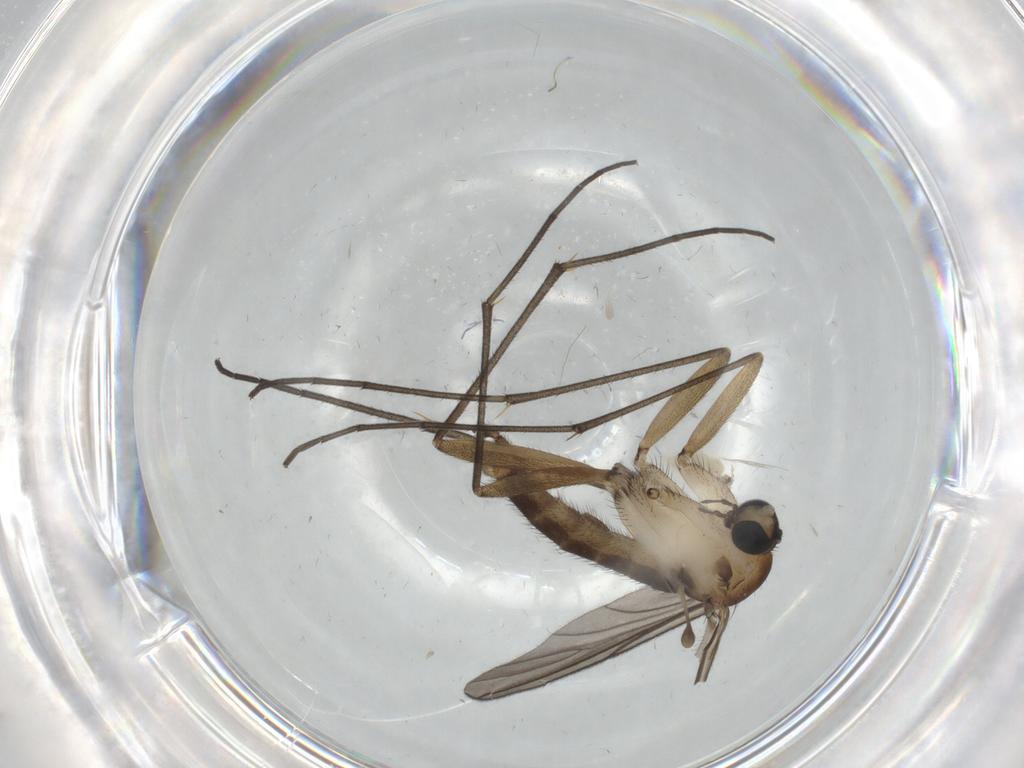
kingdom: Animalia
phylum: Arthropoda
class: Insecta
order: Diptera
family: Sciaridae
